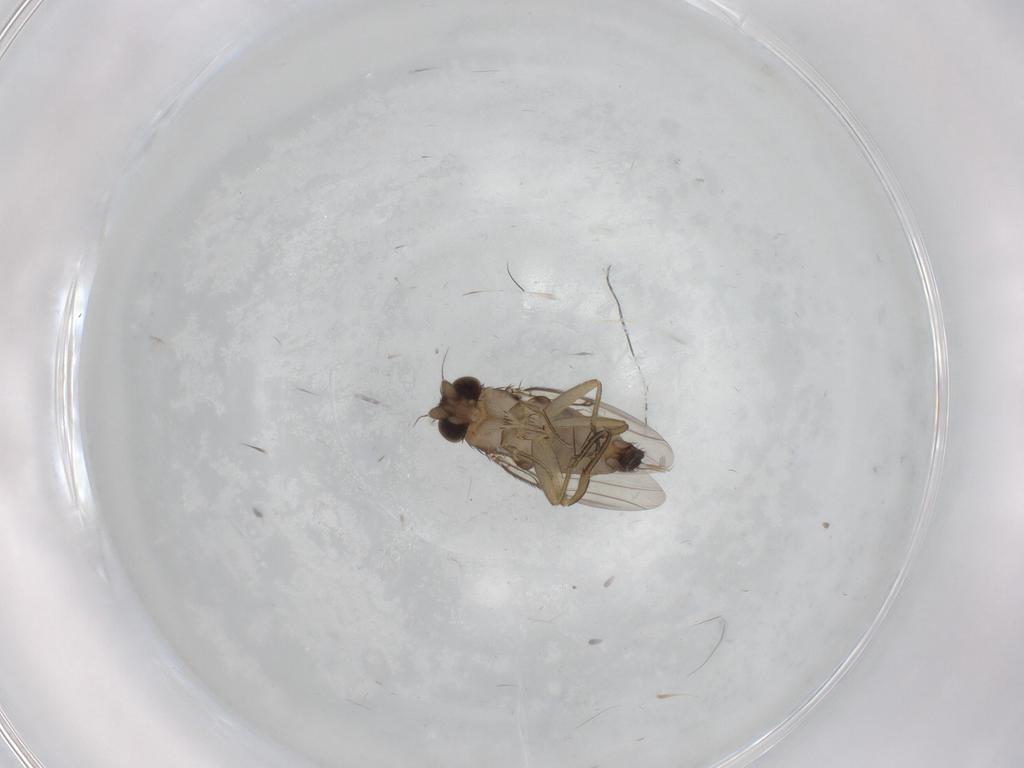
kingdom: Animalia
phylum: Arthropoda
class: Insecta
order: Diptera
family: Phoridae
